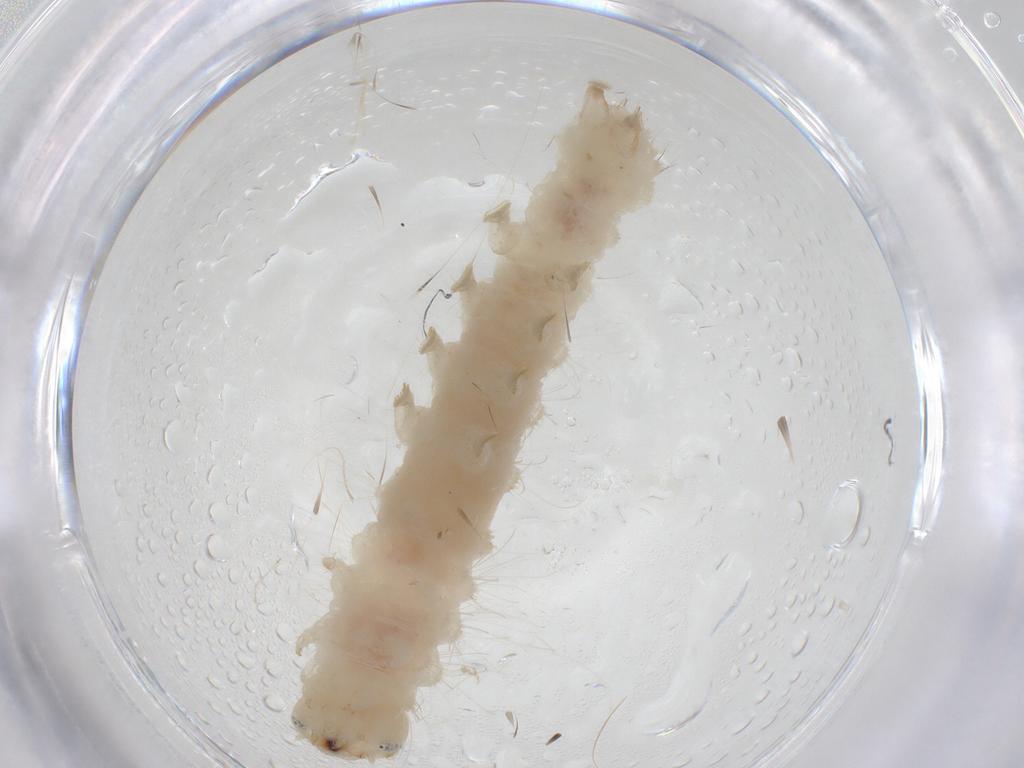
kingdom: Animalia
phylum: Arthropoda
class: Insecta
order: Lepidoptera
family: Erebidae
